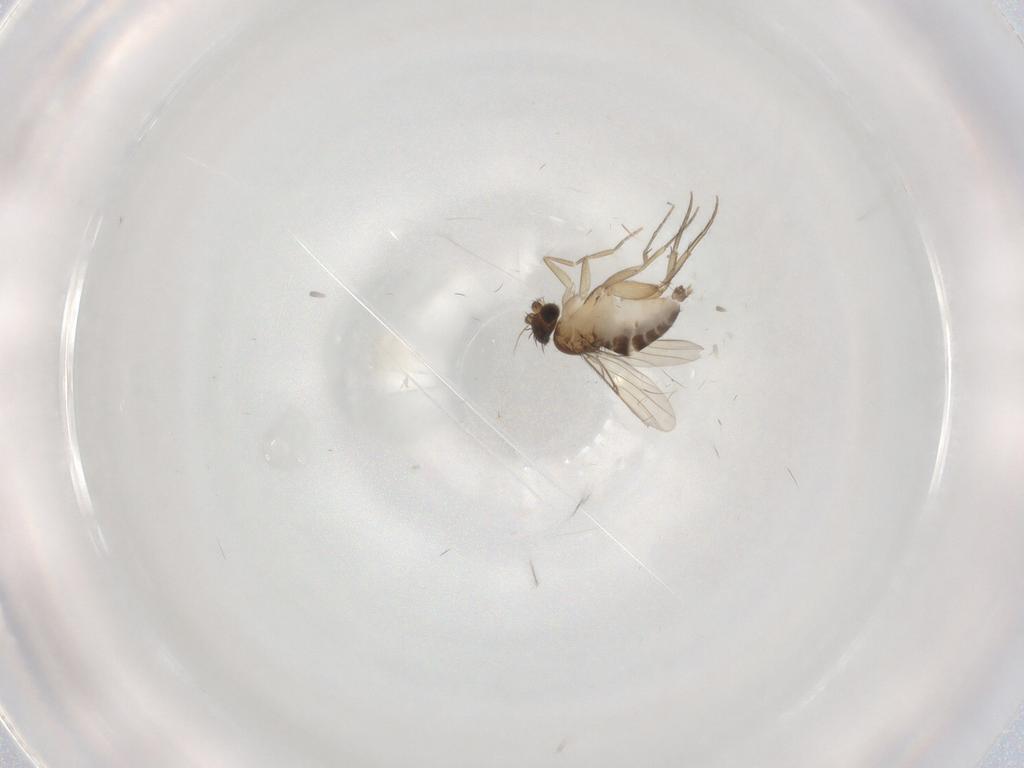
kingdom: Animalia
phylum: Arthropoda
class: Insecta
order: Diptera
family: Phoridae
